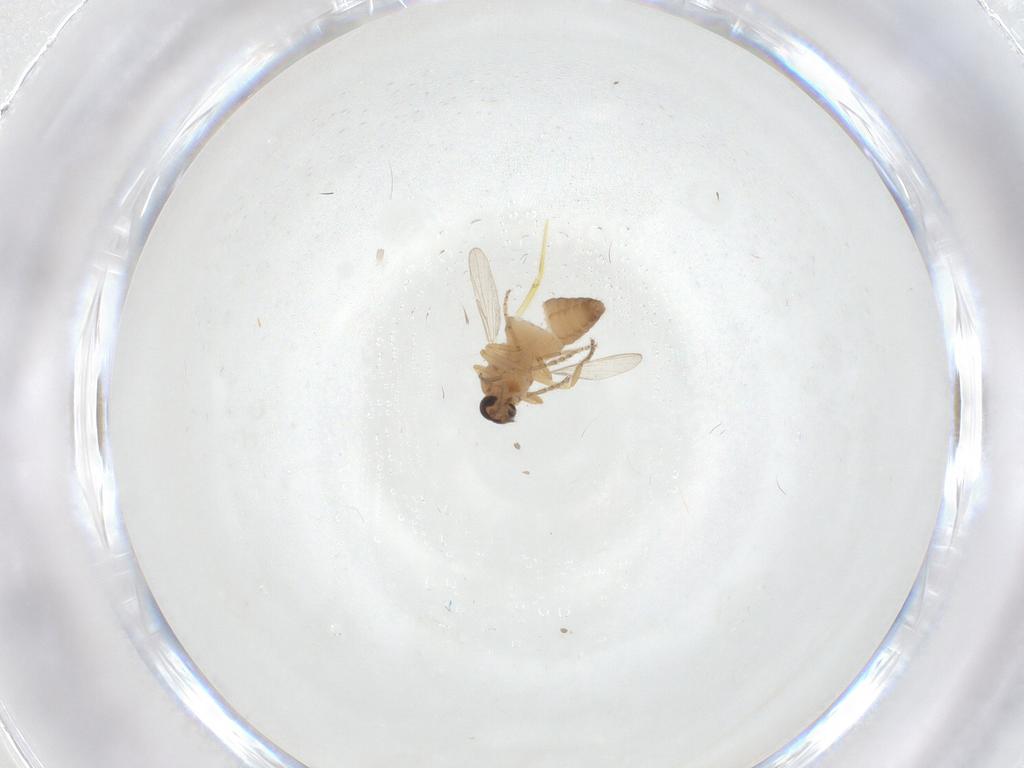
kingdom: Animalia
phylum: Arthropoda
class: Insecta
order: Diptera
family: Ceratopogonidae
